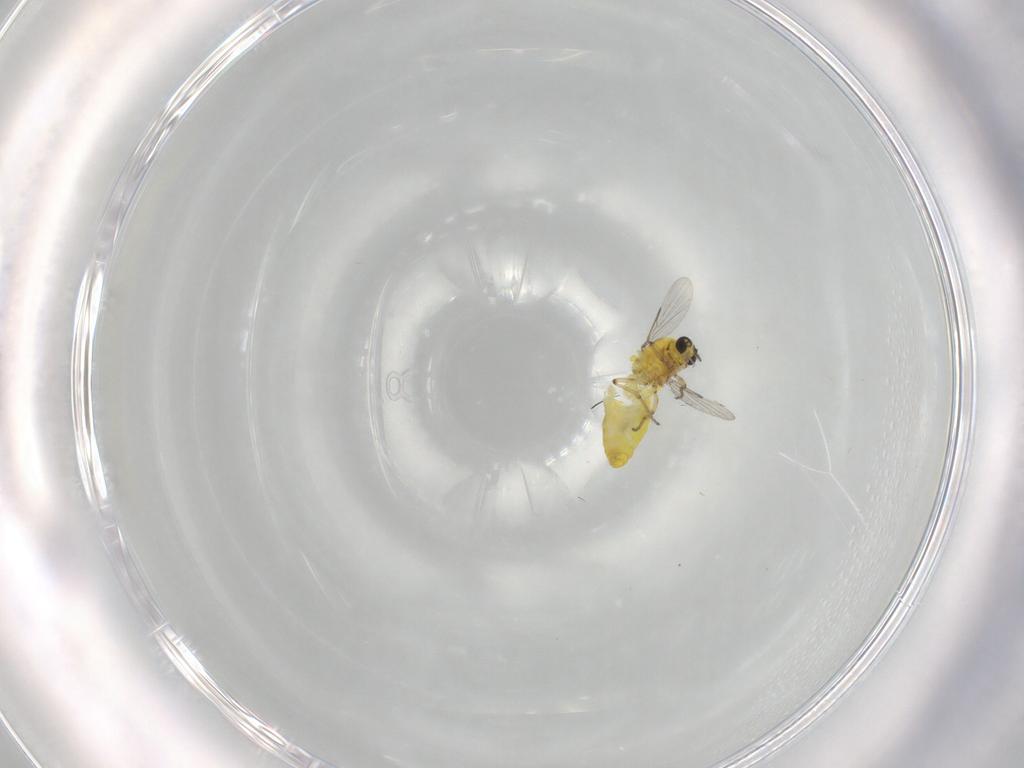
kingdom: Animalia
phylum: Arthropoda
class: Insecta
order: Diptera
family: Ceratopogonidae
